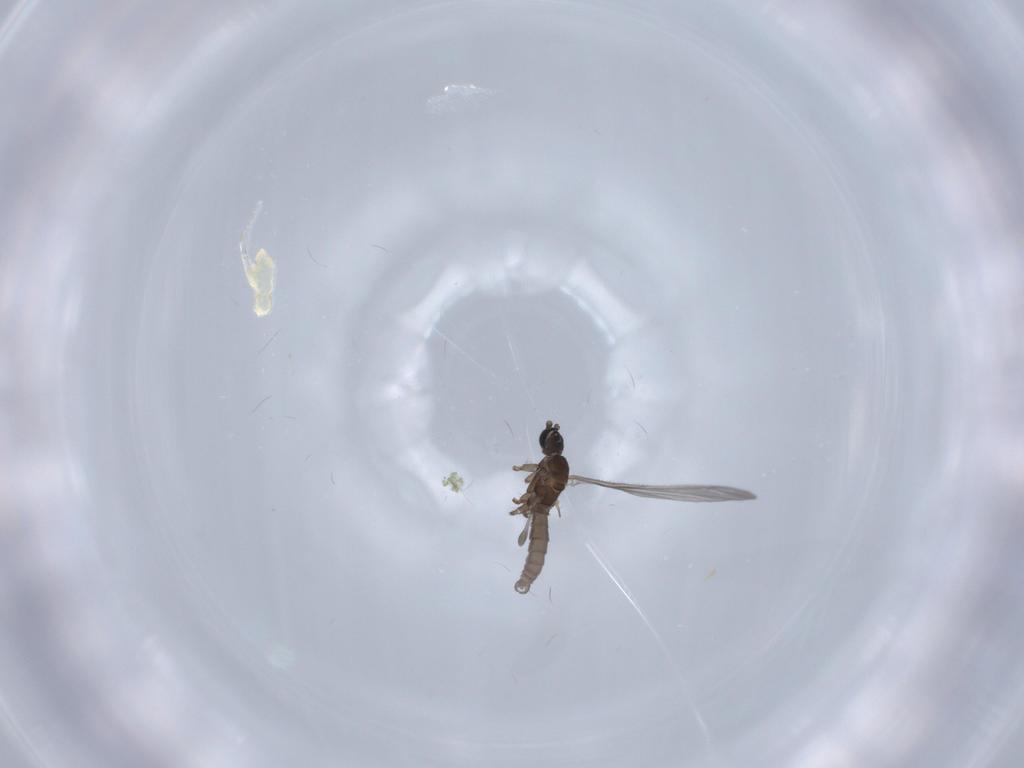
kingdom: Animalia
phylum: Arthropoda
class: Insecta
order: Diptera
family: Sciaridae
